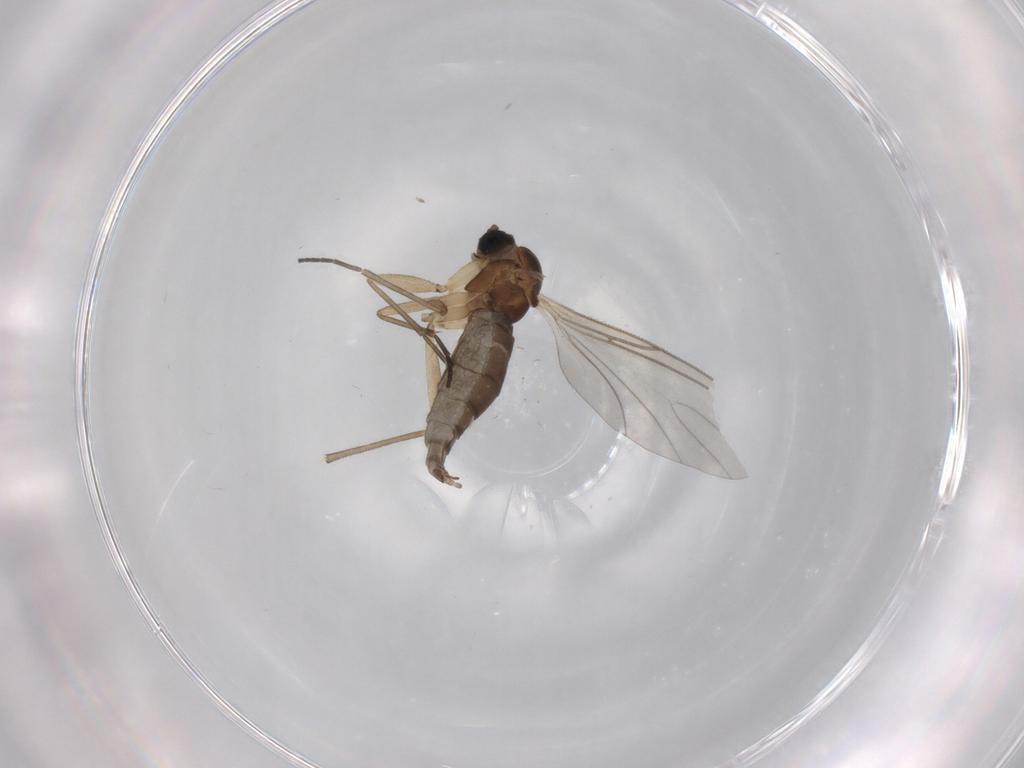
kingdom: Animalia
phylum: Arthropoda
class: Insecta
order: Diptera
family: Sciaridae
